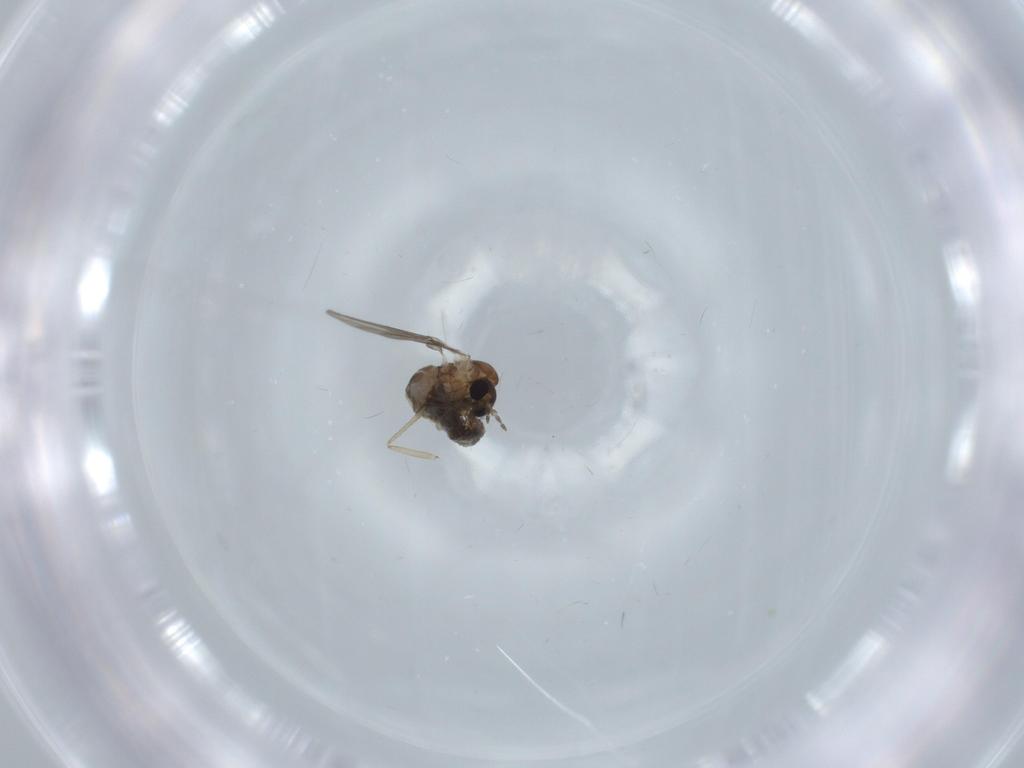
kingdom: Animalia
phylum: Arthropoda
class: Insecta
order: Diptera
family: Psychodidae
